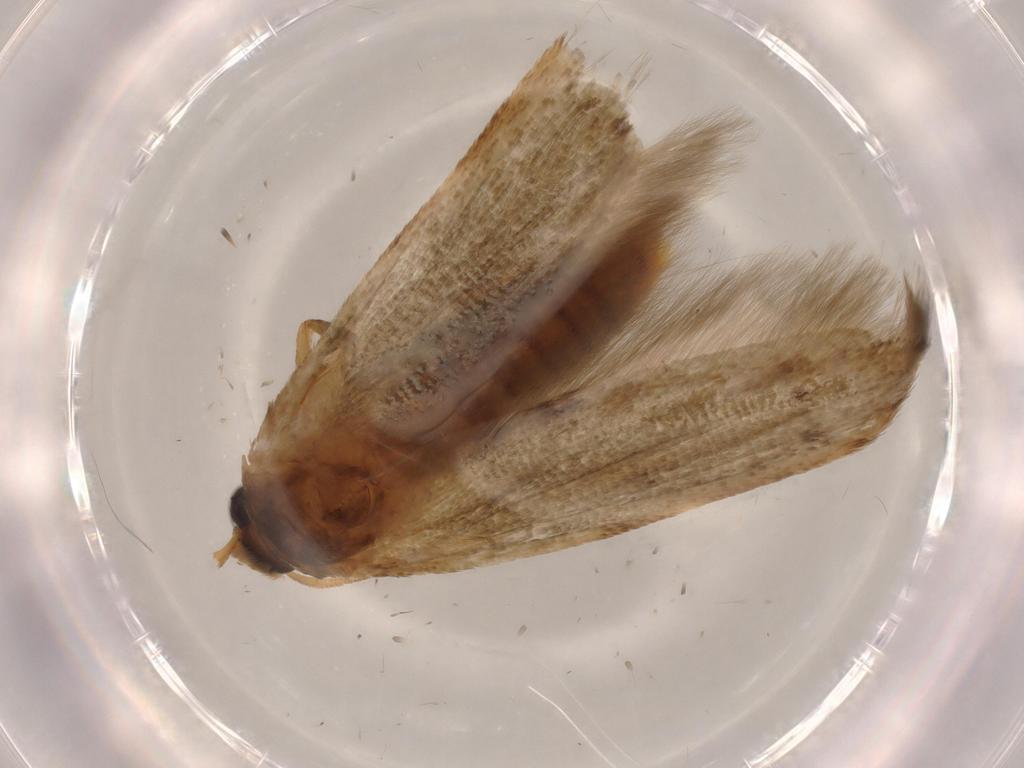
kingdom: Animalia
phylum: Arthropoda
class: Insecta
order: Lepidoptera
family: Blastobasidae
